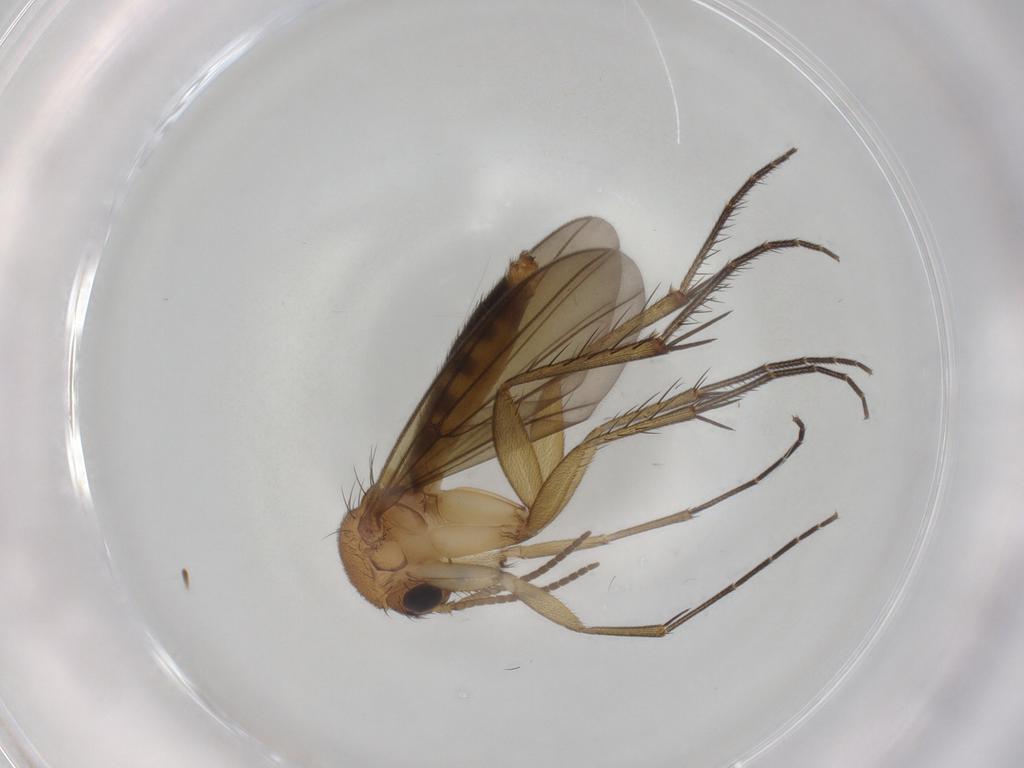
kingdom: Animalia
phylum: Arthropoda
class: Insecta
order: Diptera
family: Mycetophilidae
